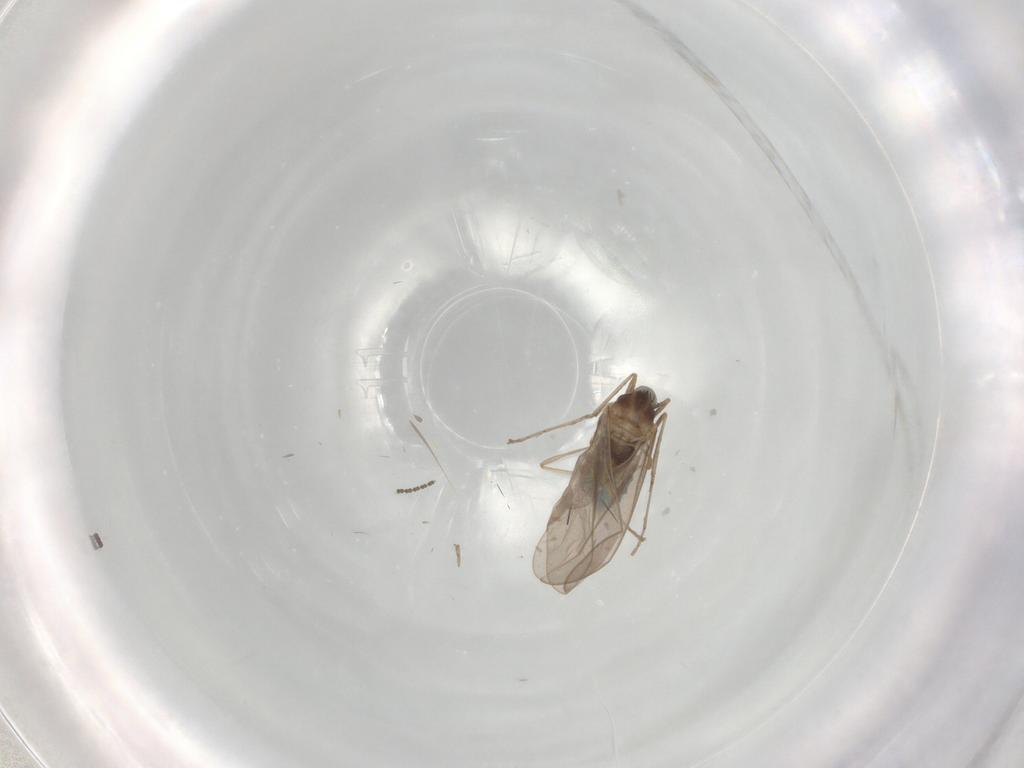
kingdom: Animalia
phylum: Arthropoda
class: Insecta
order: Diptera
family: Cecidomyiidae
